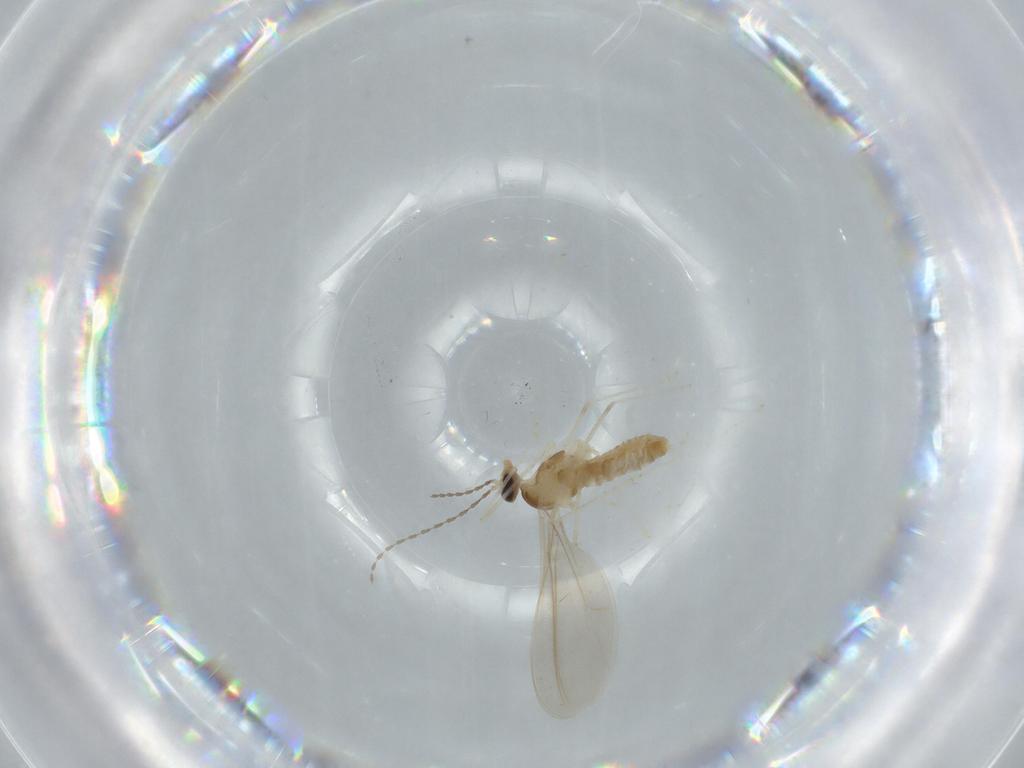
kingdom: Animalia
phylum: Arthropoda
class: Insecta
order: Diptera
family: Cecidomyiidae
